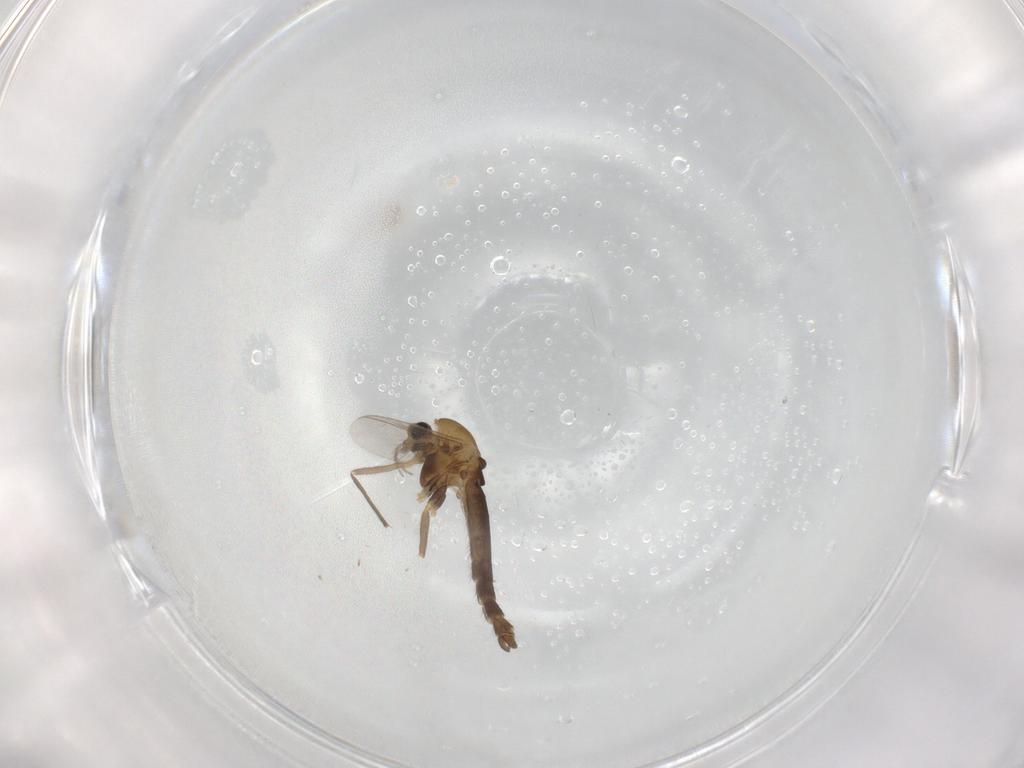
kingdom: Animalia
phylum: Arthropoda
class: Insecta
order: Diptera
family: Chironomidae
